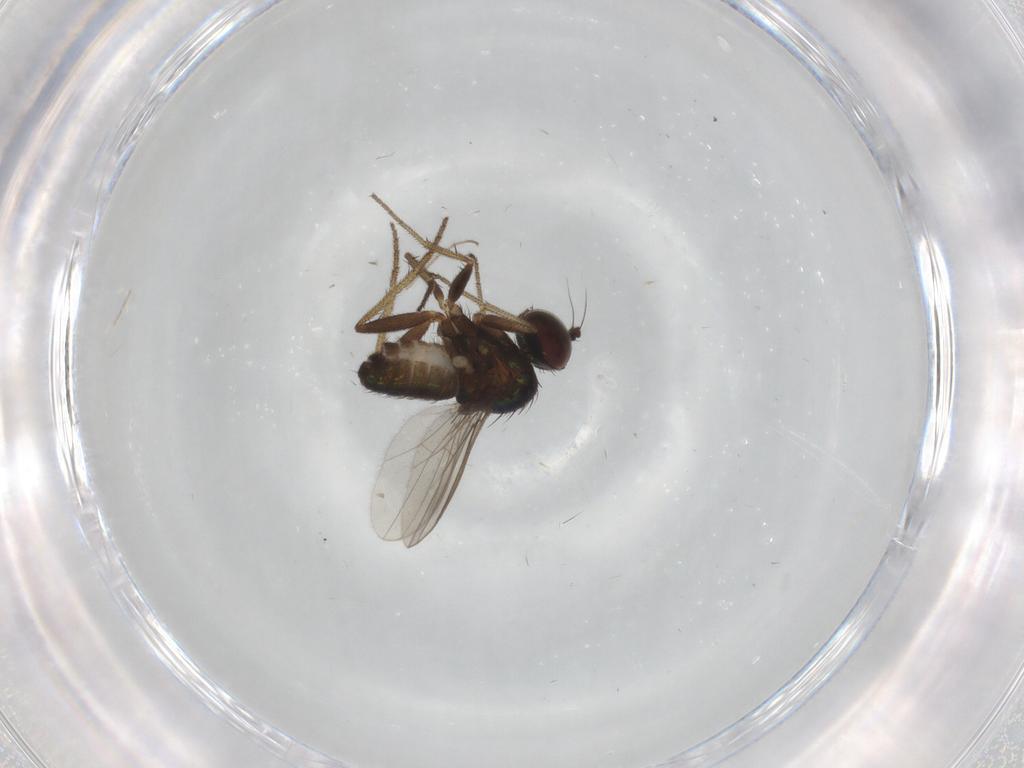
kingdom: Animalia
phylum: Arthropoda
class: Insecta
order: Diptera
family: Dolichopodidae
